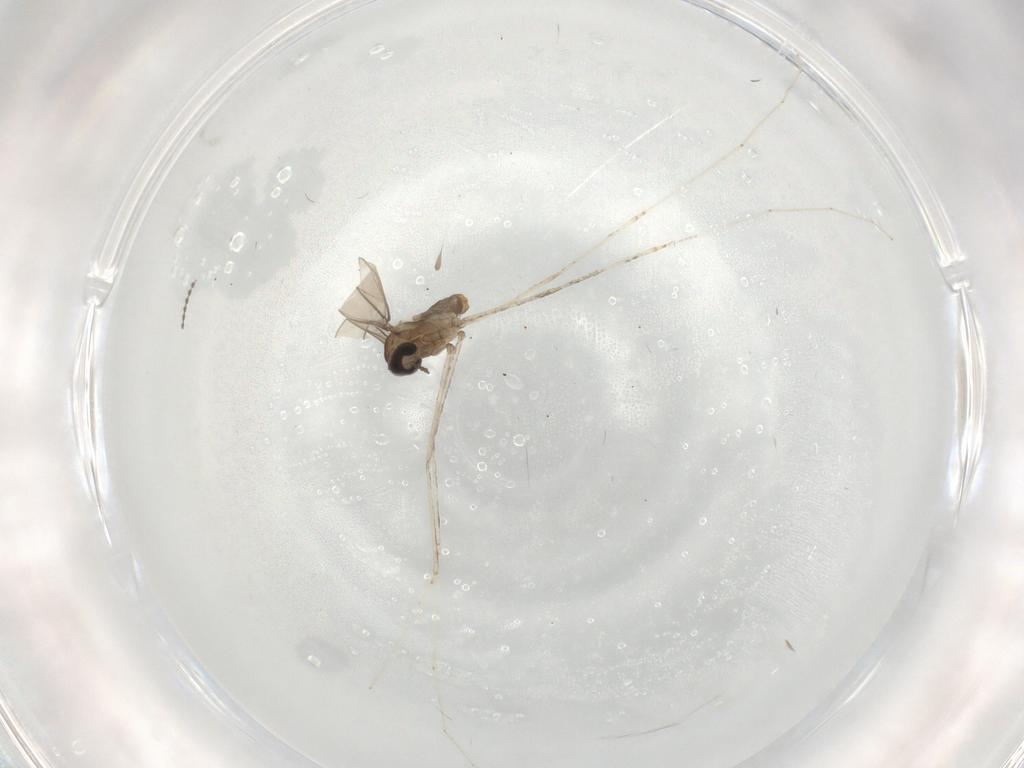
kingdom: Animalia
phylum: Arthropoda
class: Insecta
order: Diptera
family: Cecidomyiidae
